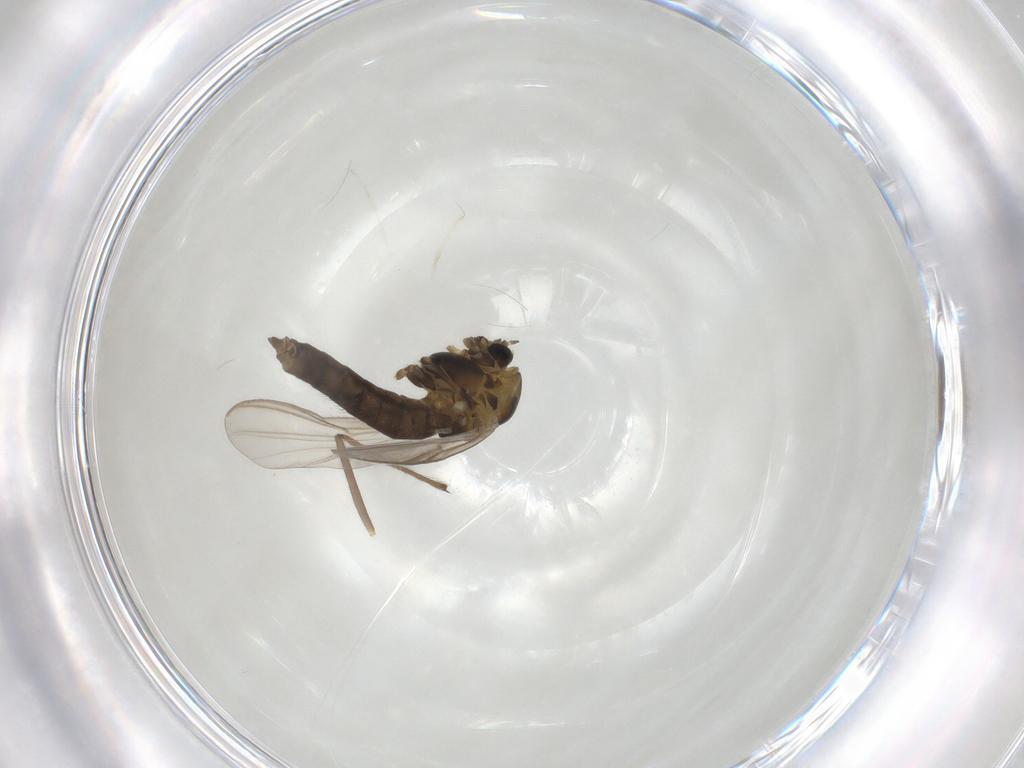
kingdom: Animalia
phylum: Arthropoda
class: Insecta
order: Diptera
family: Chironomidae
